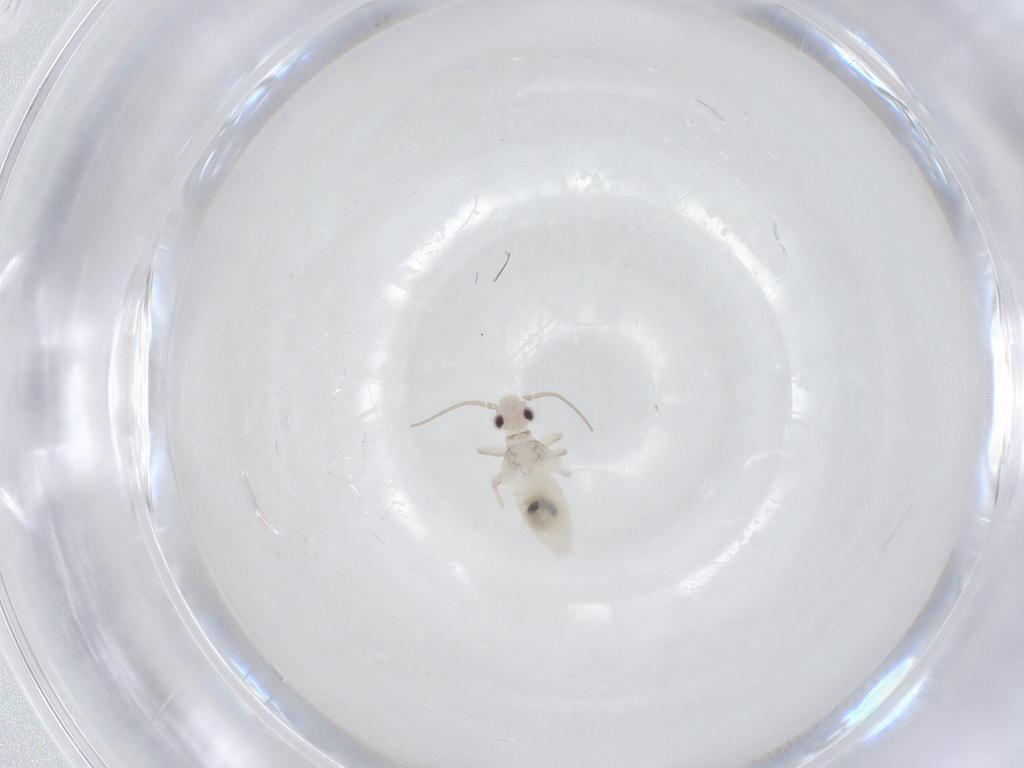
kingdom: Animalia
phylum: Arthropoda
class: Insecta
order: Psocodea
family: Caeciliusidae
